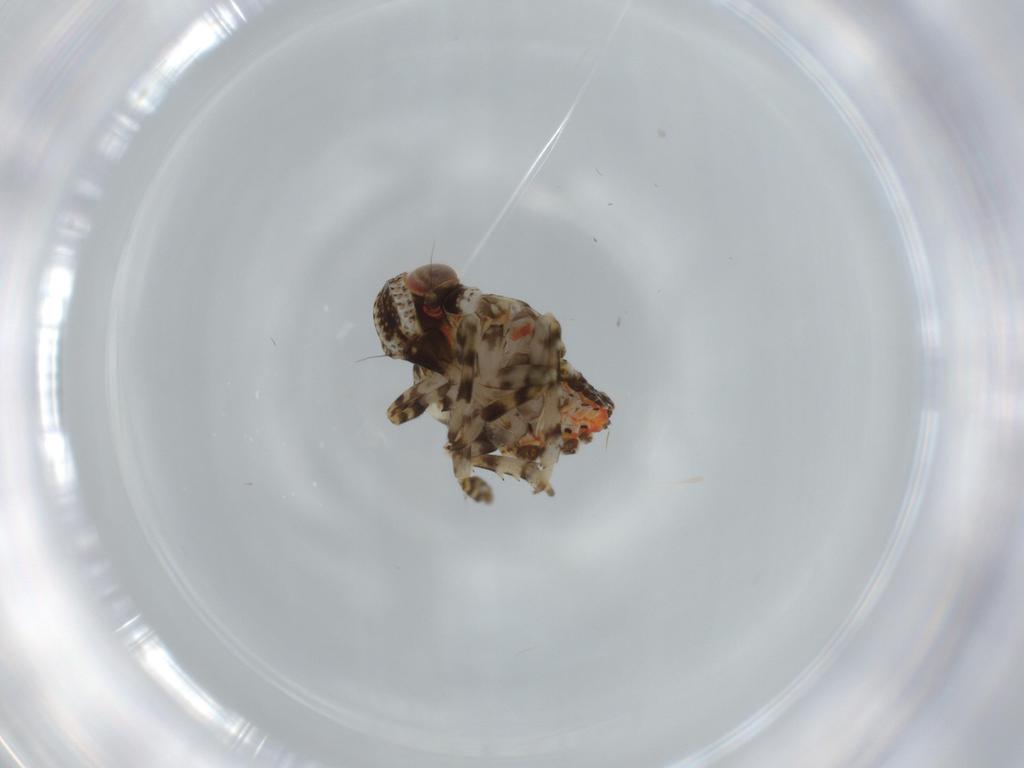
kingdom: Animalia
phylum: Arthropoda
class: Insecta
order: Hemiptera
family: Issidae
